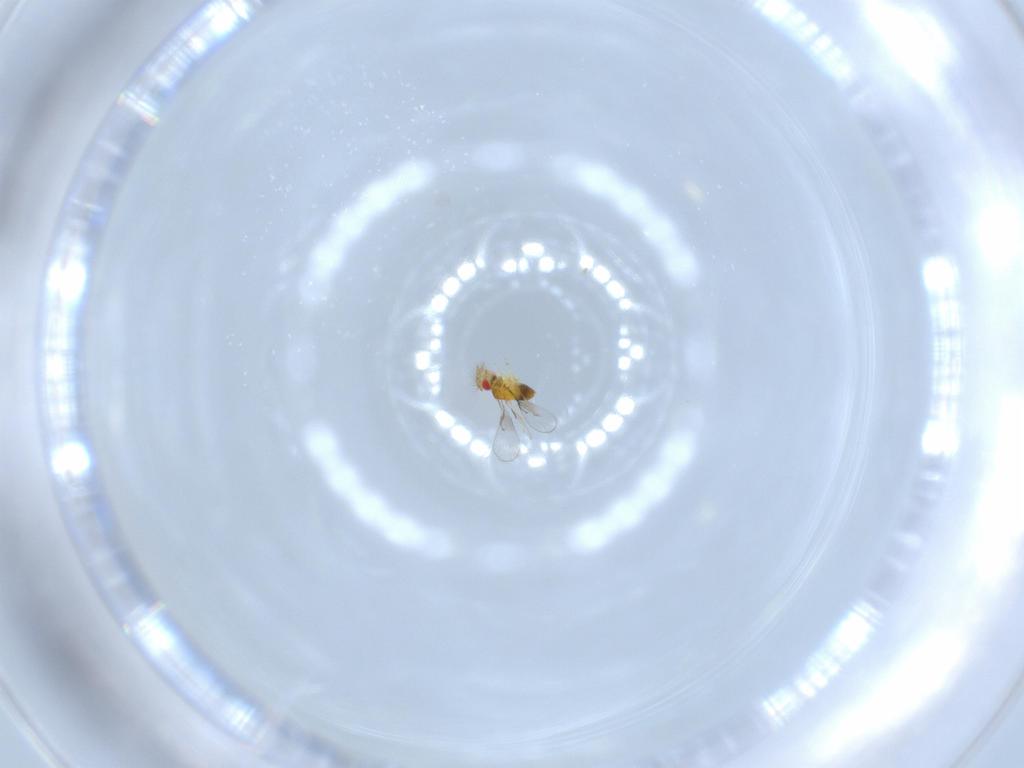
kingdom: Animalia
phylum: Arthropoda
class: Insecta
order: Hymenoptera
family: Trichogrammatidae
